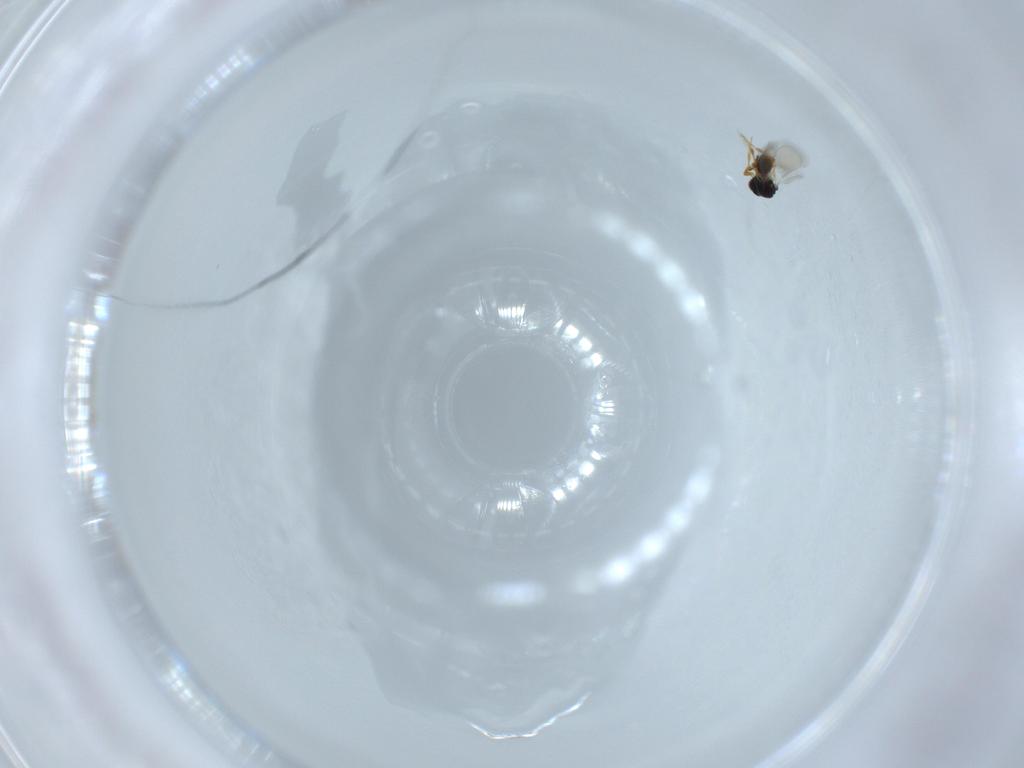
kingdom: Animalia
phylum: Arthropoda
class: Insecta
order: Hymenoptera
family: Platygastridae
